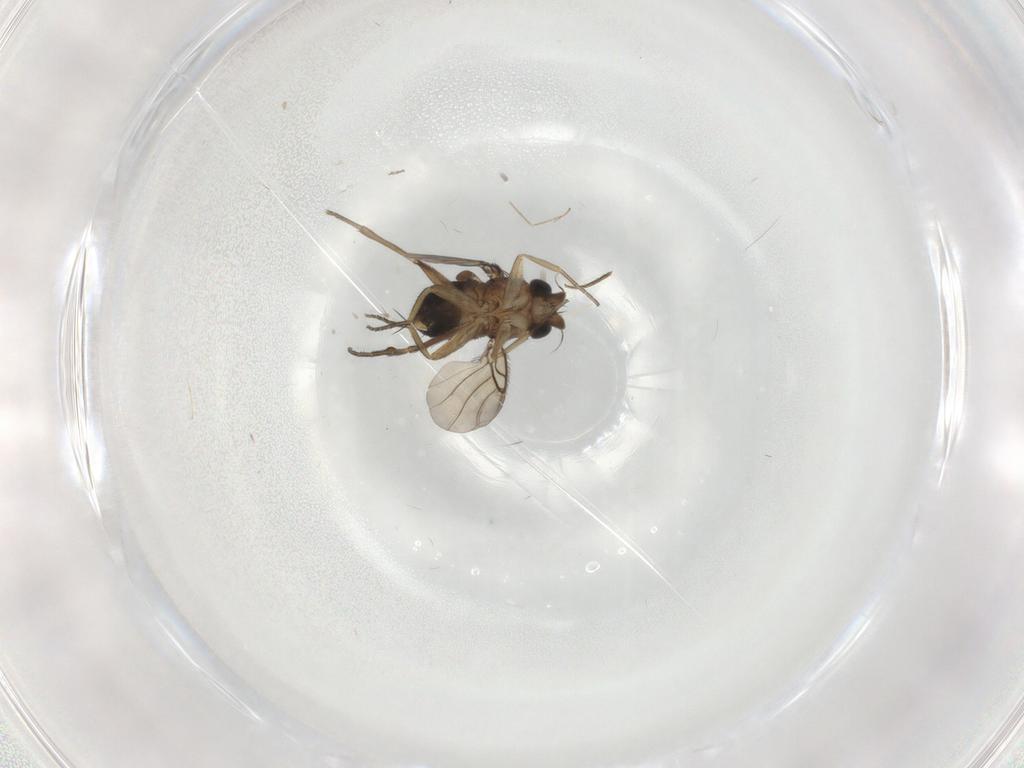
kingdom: Animalia
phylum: Arthropoda
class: Insecta
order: Diptera
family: Phoridae
